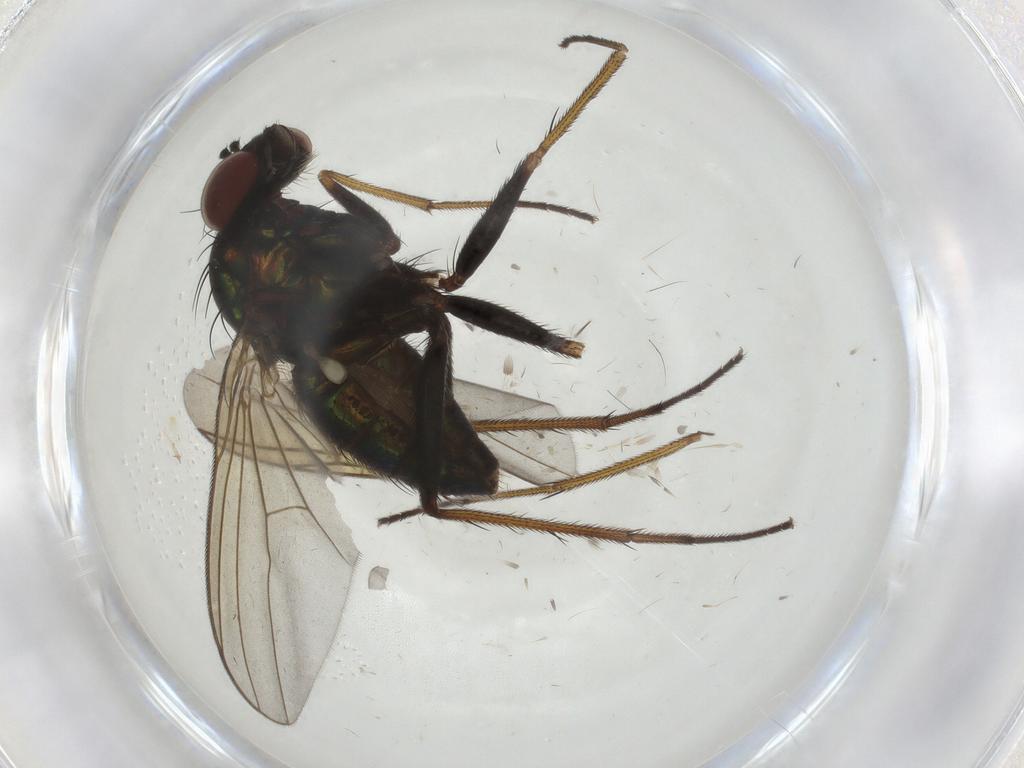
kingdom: Animalia
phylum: Arthropoda
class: Insecta
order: Diptera
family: Dolichopodidae
